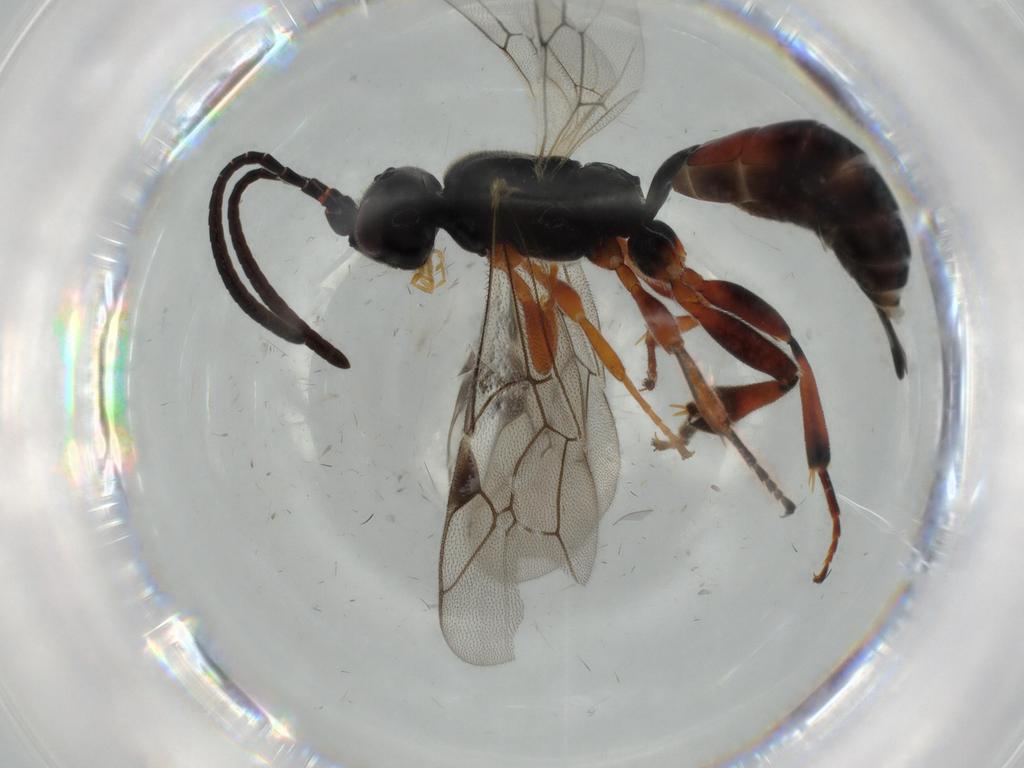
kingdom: Animalia
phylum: Arthropoda
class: Insecta
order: Hymenoptera
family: Ichneumonidae
